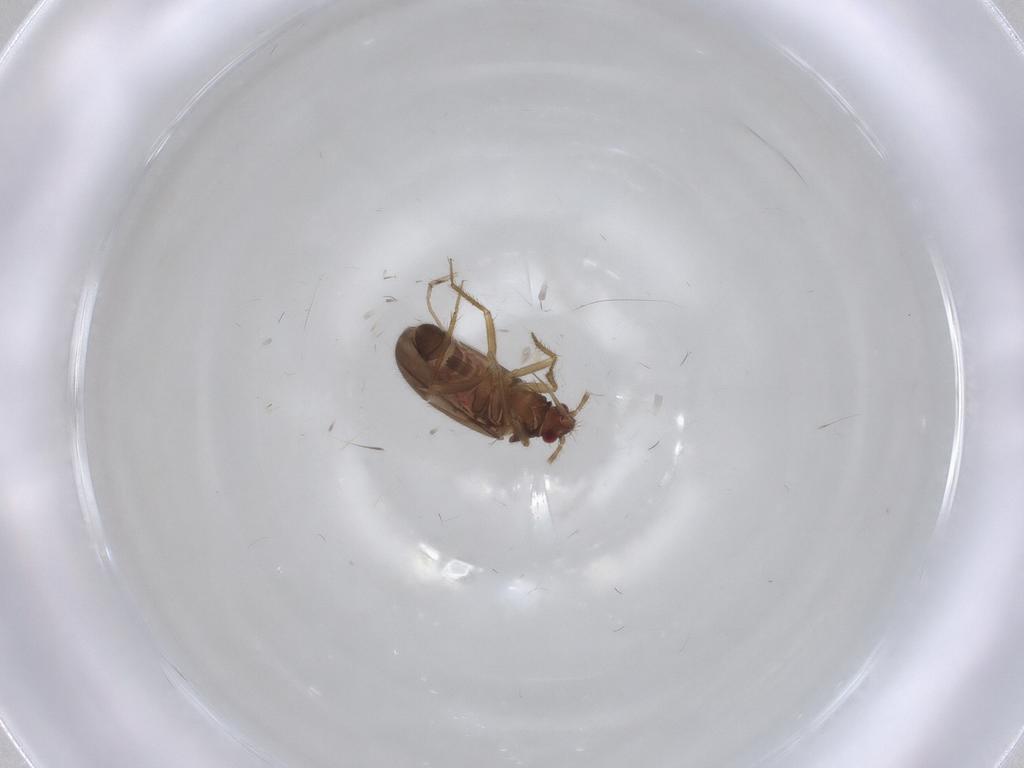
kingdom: Animalia
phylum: Arthropoda
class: Insecta
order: Hemiptera
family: Ceratocombidae
